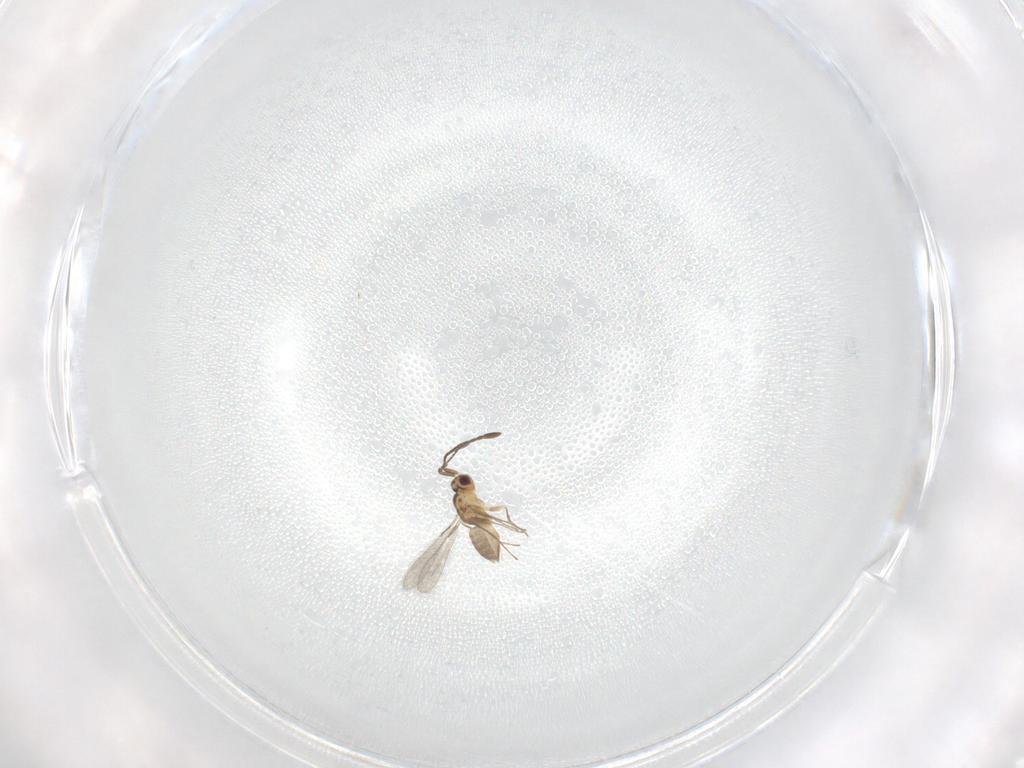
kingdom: Animalia
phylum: Arthropoda
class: Insecta
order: Hymenoptera
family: Mymaridae
